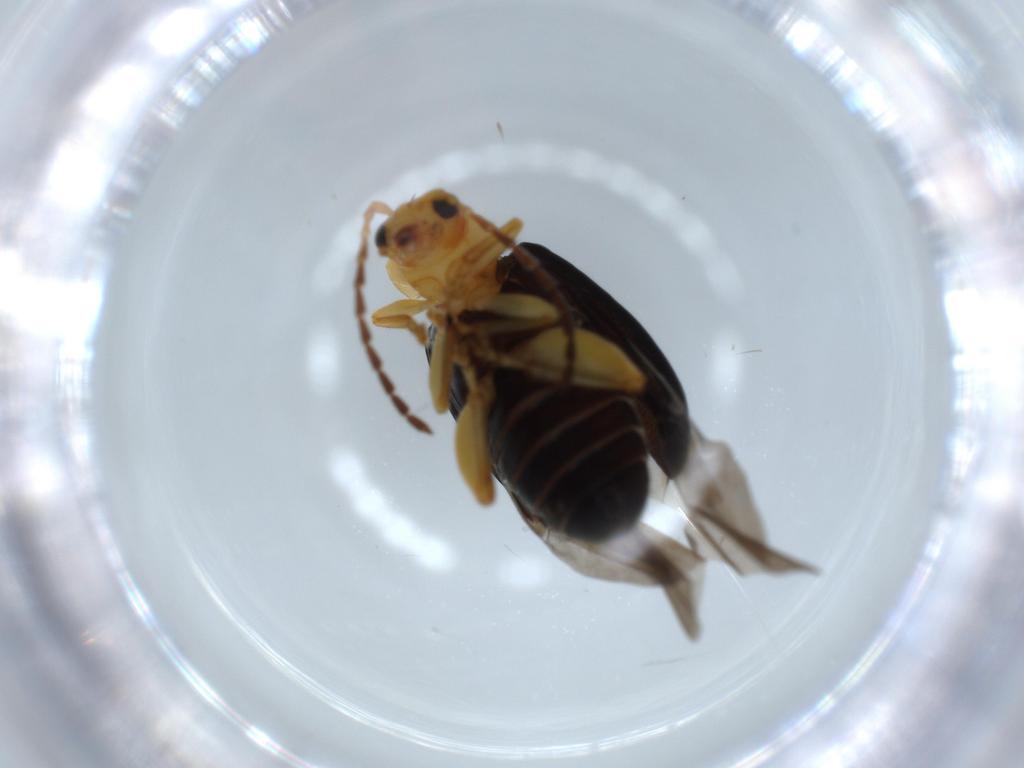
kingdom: Animalia
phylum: Arthropoda
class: Insecta
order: Coleoptera
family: Chrysomelidae
